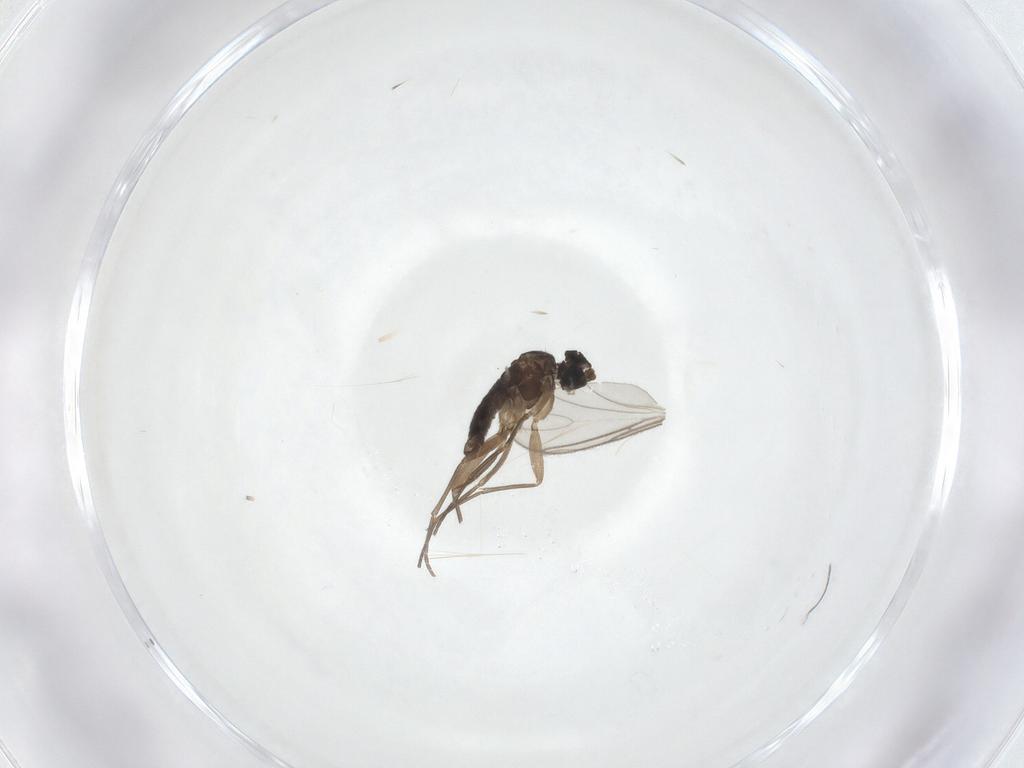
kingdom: Animalia
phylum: Arthropoda
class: Insecta
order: Diptera
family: Sciaridae
